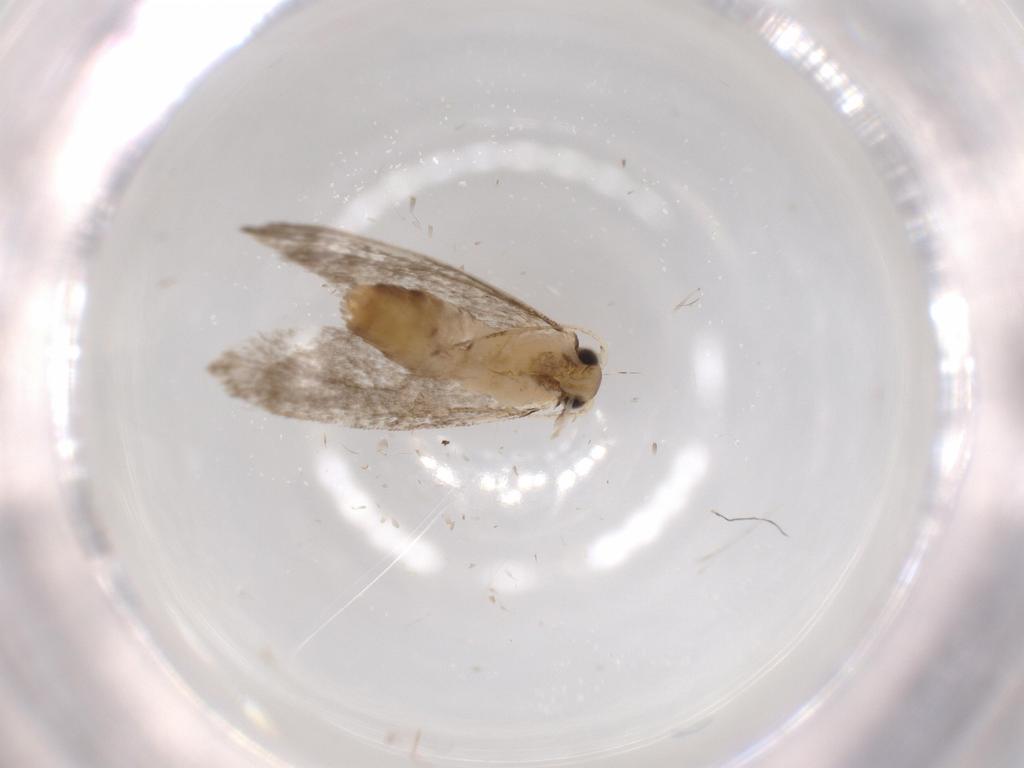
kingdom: Animalia
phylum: Arthropoda
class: Insecta
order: Lepidoptera
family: Tineidae
